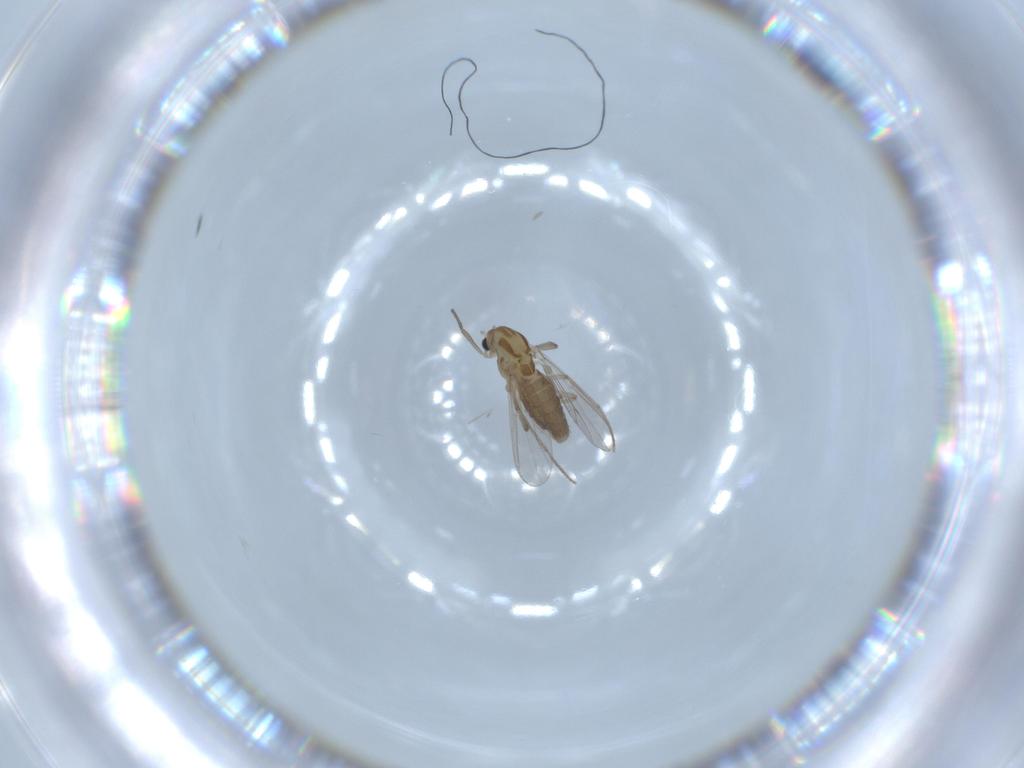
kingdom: Animalia
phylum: Arthropoda
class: Insecta
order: Diptera
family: Chironomidae
